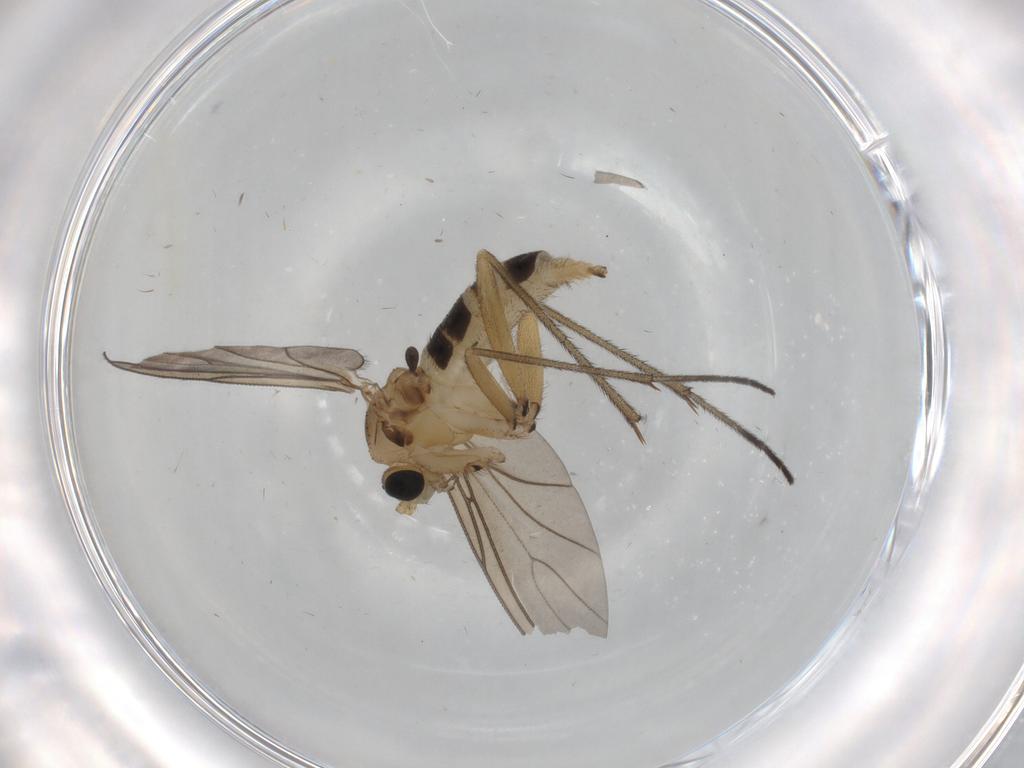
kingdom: Animalia
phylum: Arthropoda
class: Insecta
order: Diptera
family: Sciaridae
